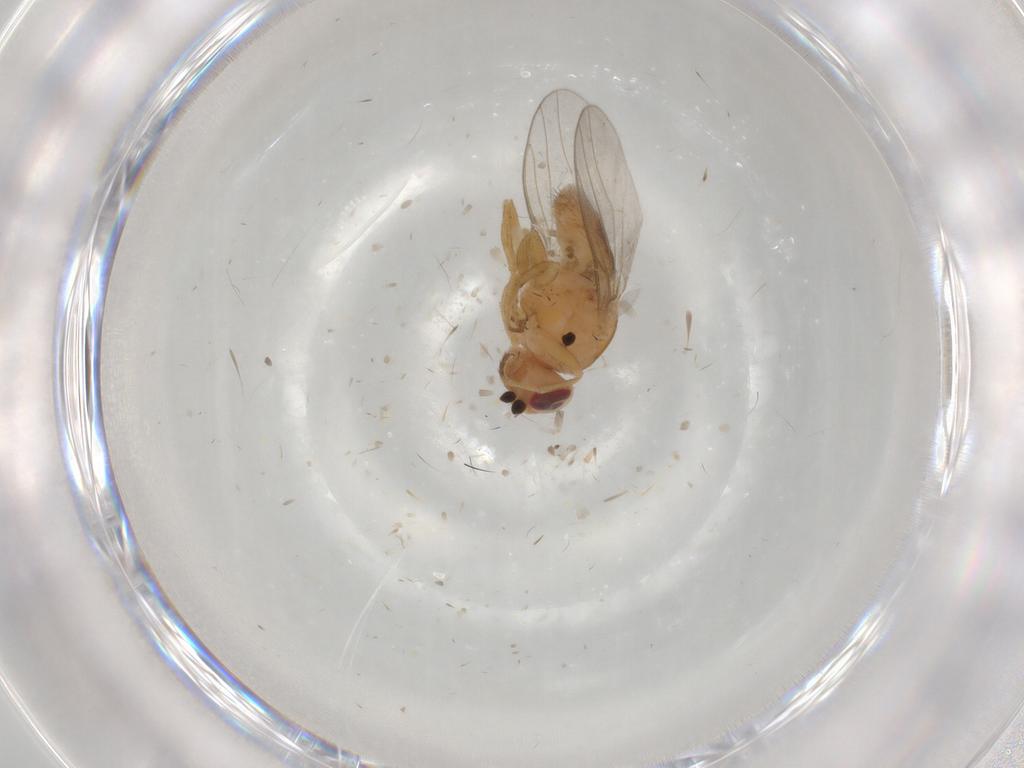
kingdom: Animalia
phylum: Arthropoda
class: Insecta
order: Diptera
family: Chloropidae
